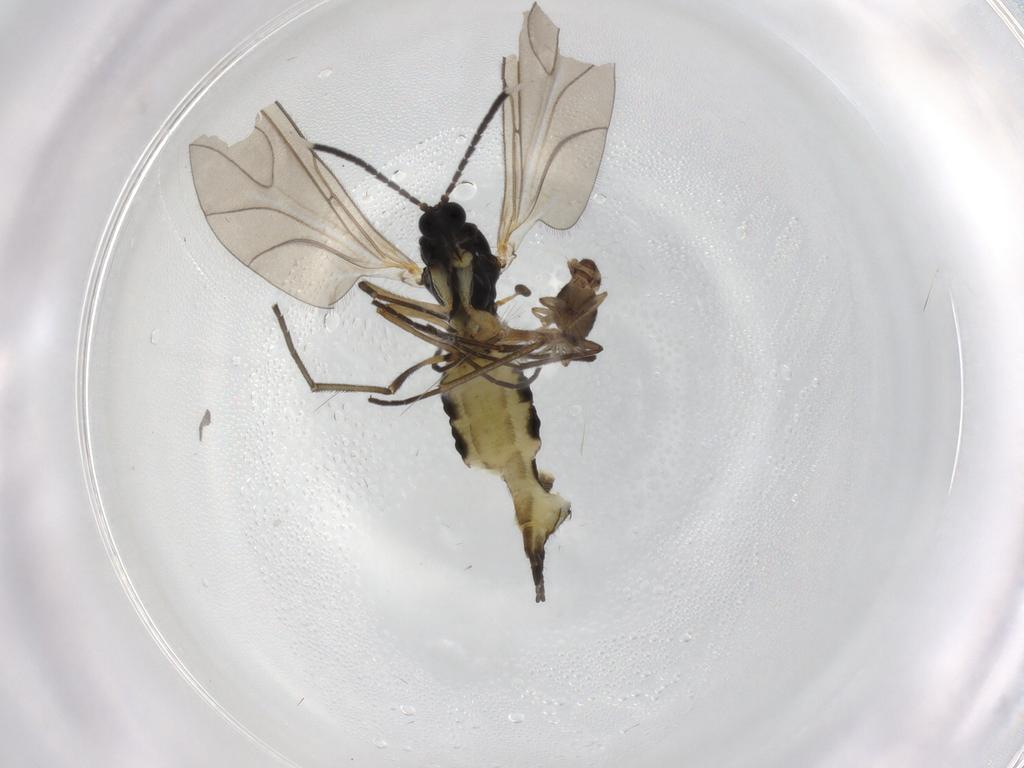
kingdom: Animalia
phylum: Arthropoda
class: Insecta
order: Diptera
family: Phoridae
